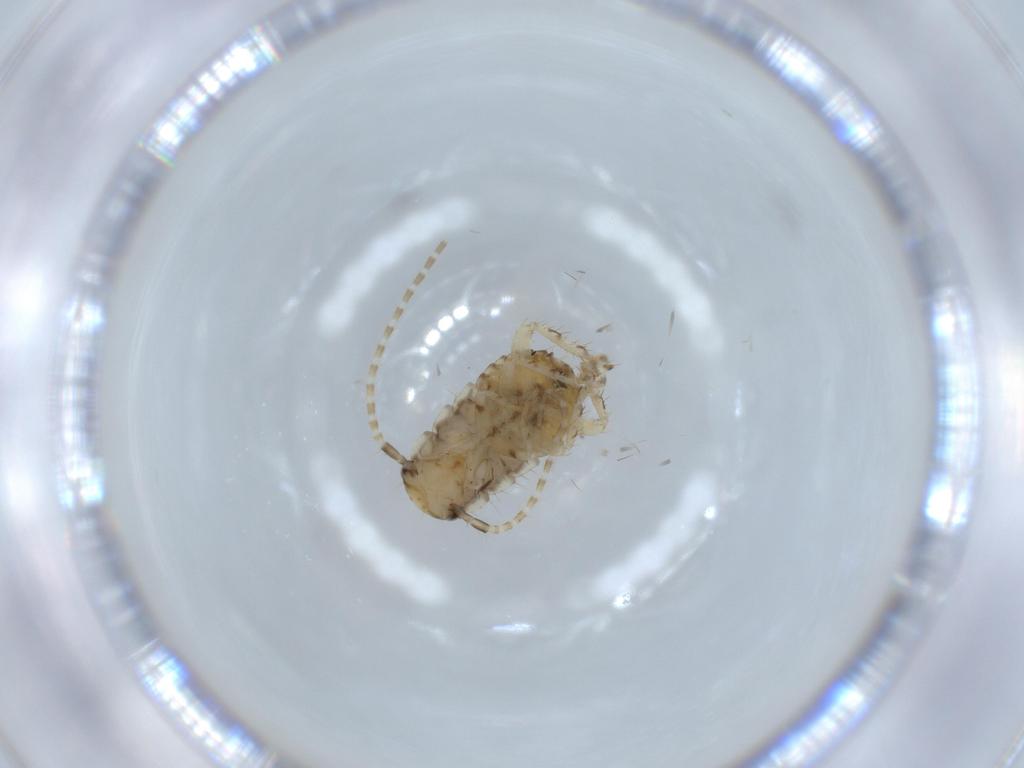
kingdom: Animalia
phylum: Arthropoda
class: Insecta
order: Blattodea
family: Ectobiidae
